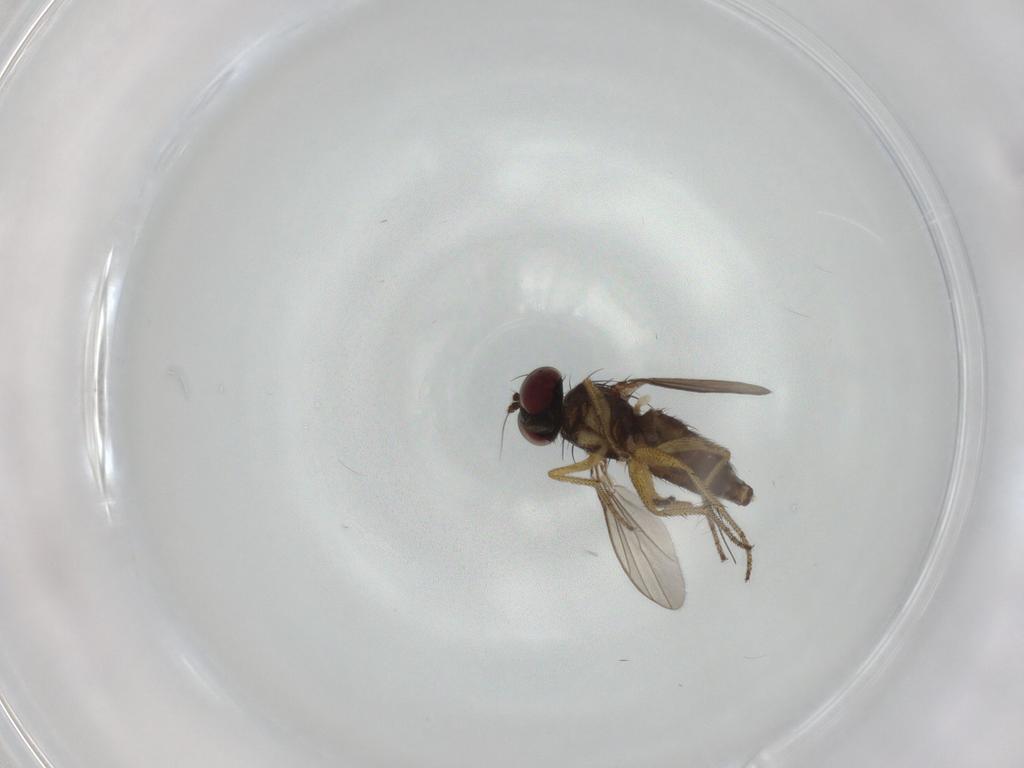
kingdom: Animalia
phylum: Arthropoda
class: Insecta
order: Diptera
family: Dolichopodidae
